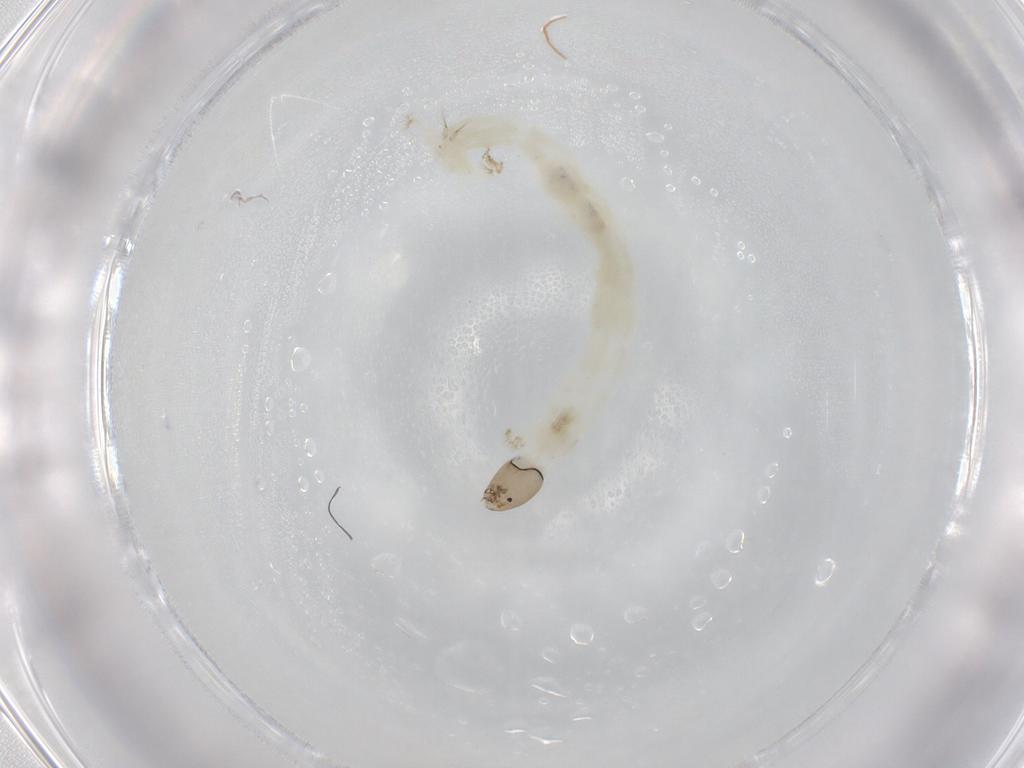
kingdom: Animalia
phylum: Arthropoda
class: Insecta
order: Diptera
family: Chironomidae
